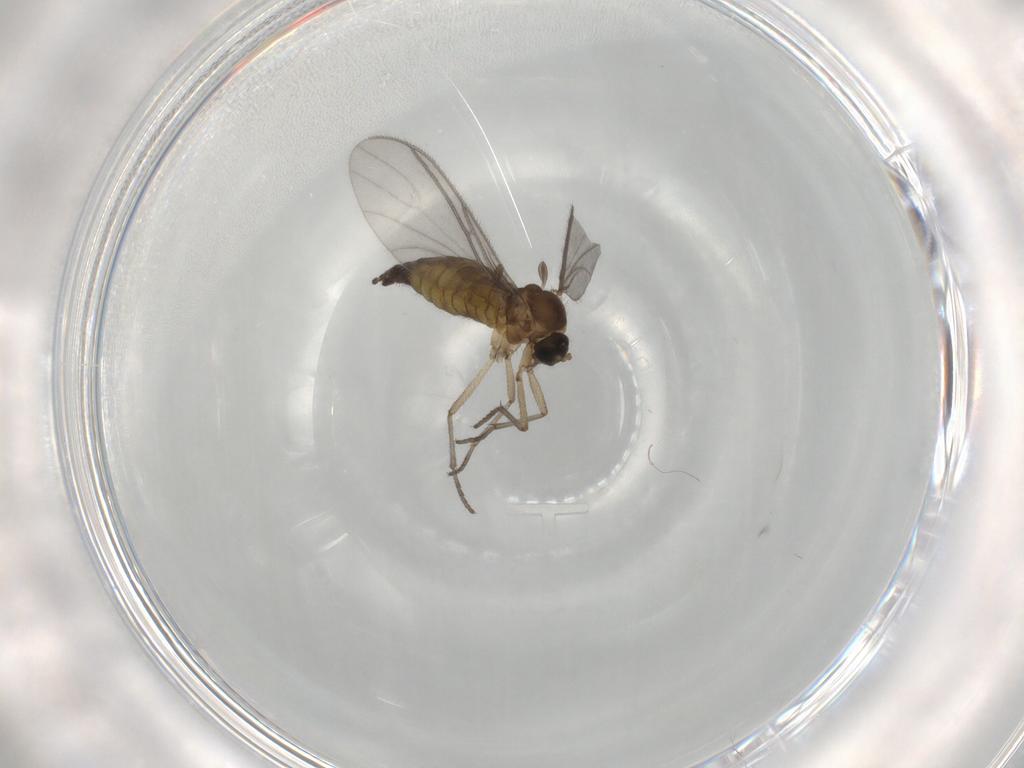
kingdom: Animalia
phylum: Arthropoda
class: Insecta
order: Diptera
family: Sciaridae
